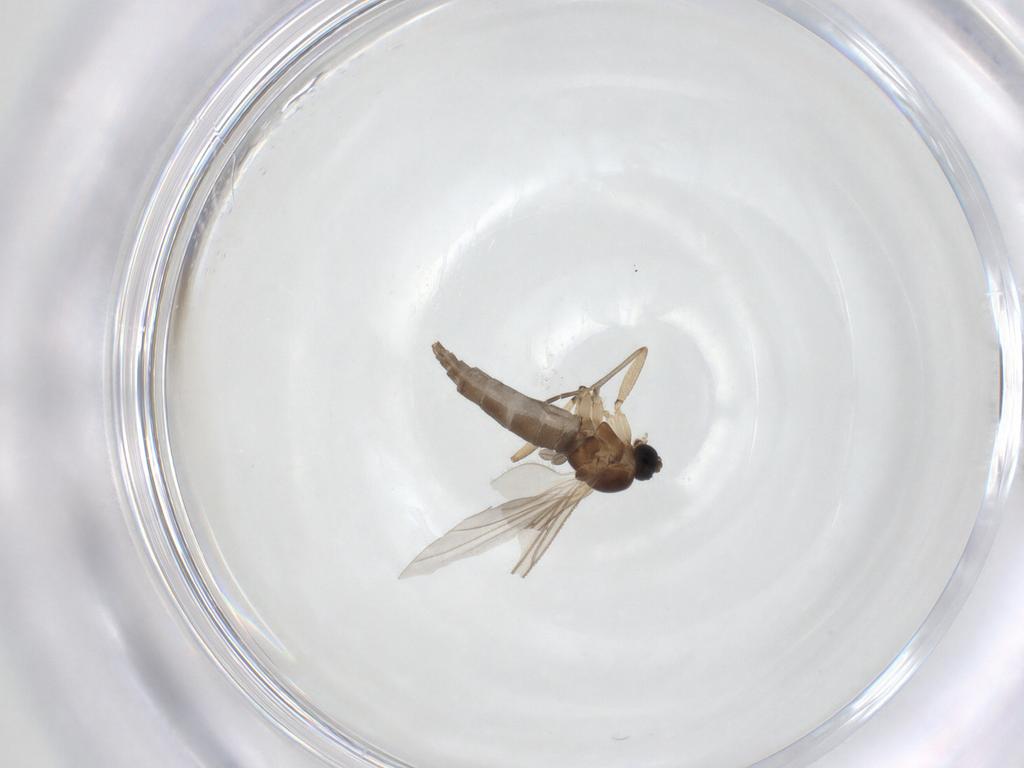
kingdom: Animalia
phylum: Arthropoda
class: Insecta
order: Diptera
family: Sciaridae
